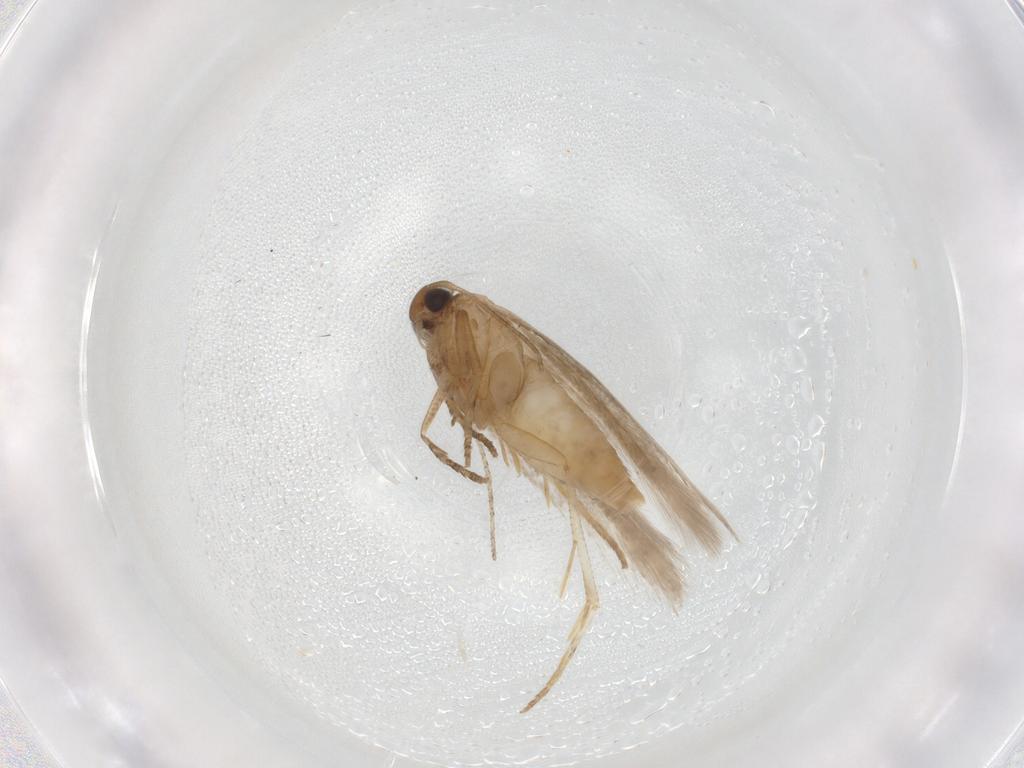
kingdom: Animalia
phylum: Arthropoda
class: Insecta
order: Lepidoptera
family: Gelechiidae
